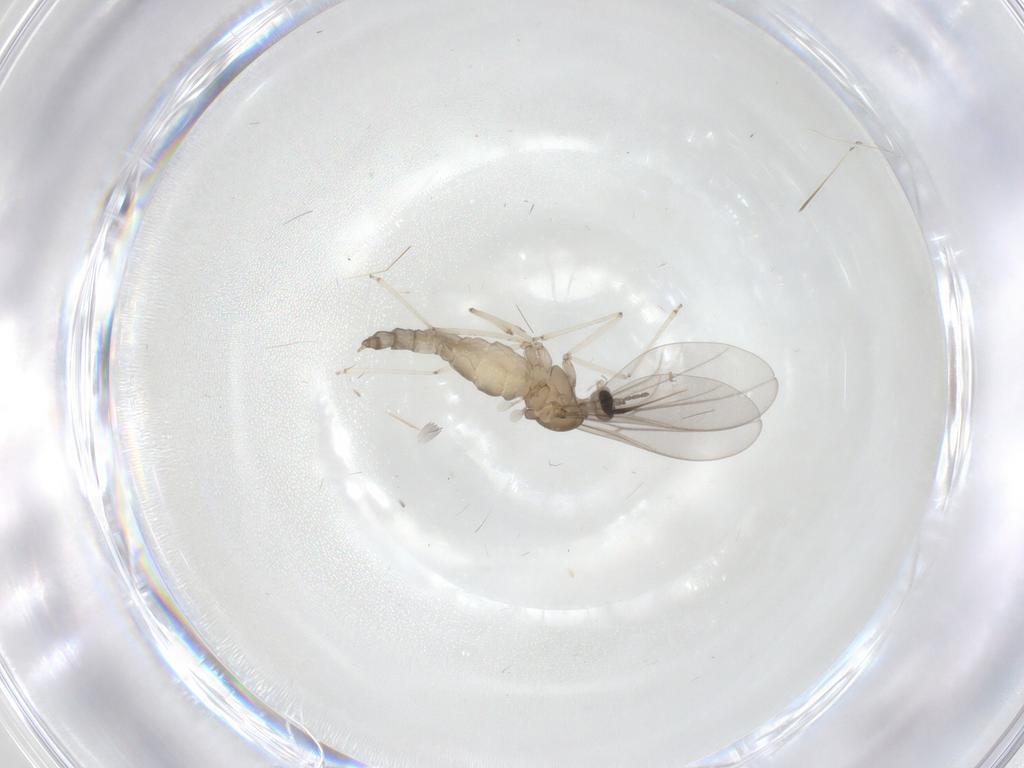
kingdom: Animalia
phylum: Arthropoda
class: Insecta
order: Diptera
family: Cecidomyiidae
